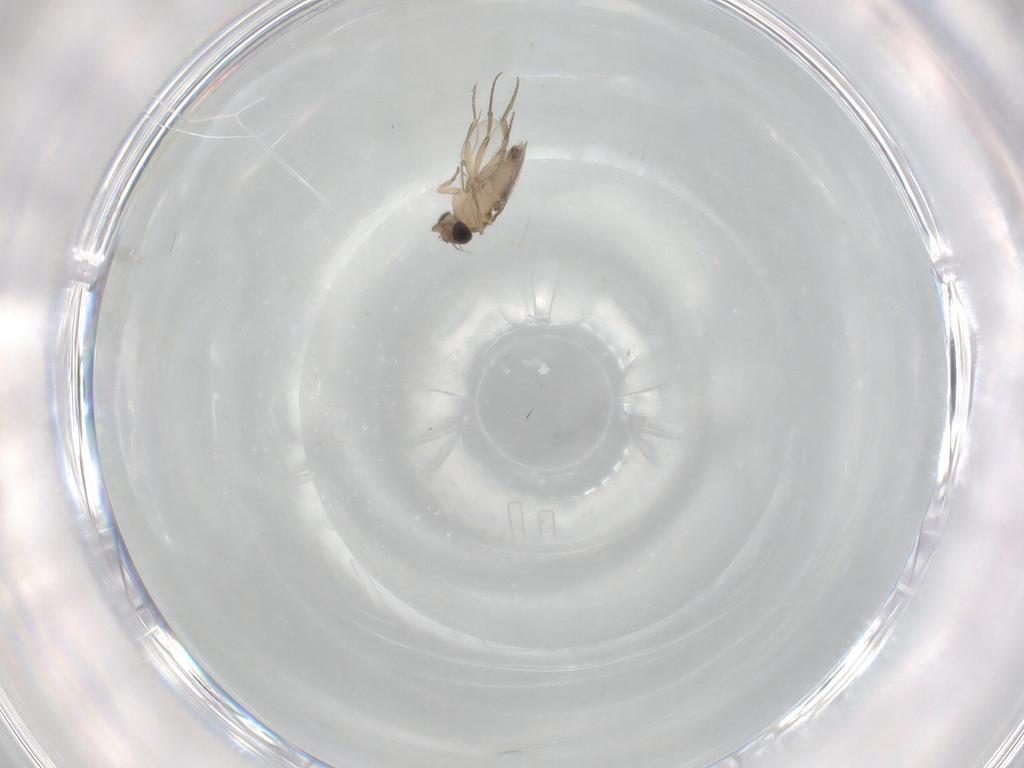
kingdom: Animalia
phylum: Arthropoda
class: Insecta
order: Diptera
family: Phoridae
